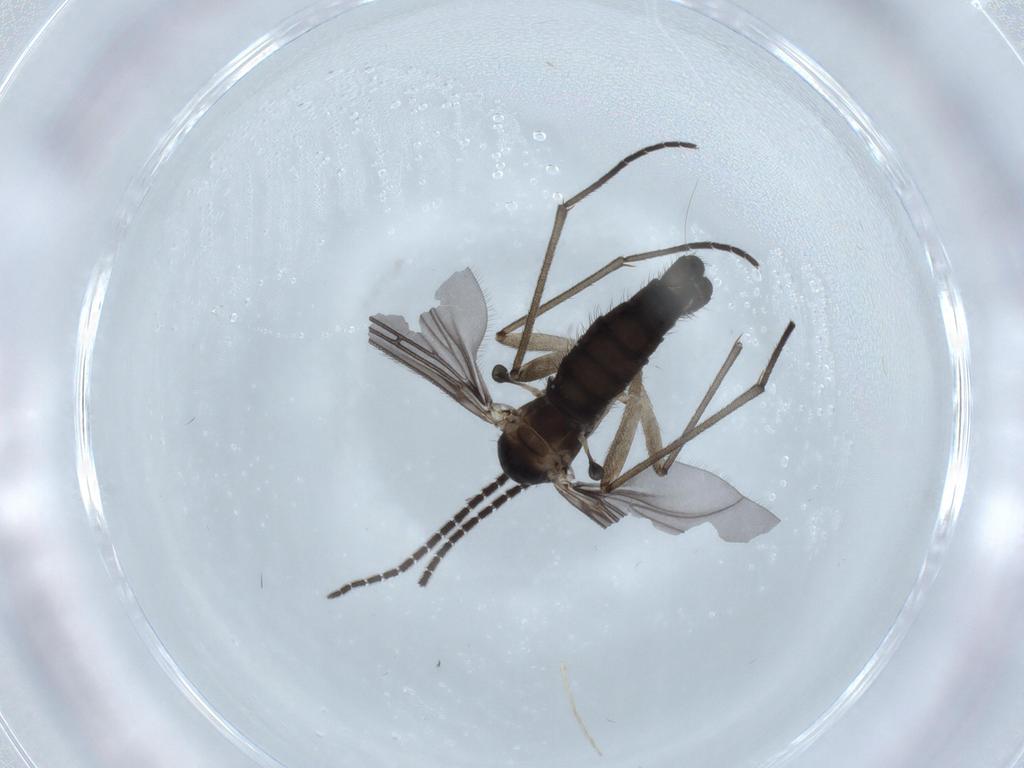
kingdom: Animalia
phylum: Arthropoda
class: Insecta
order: Diptera
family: Sciaridae
